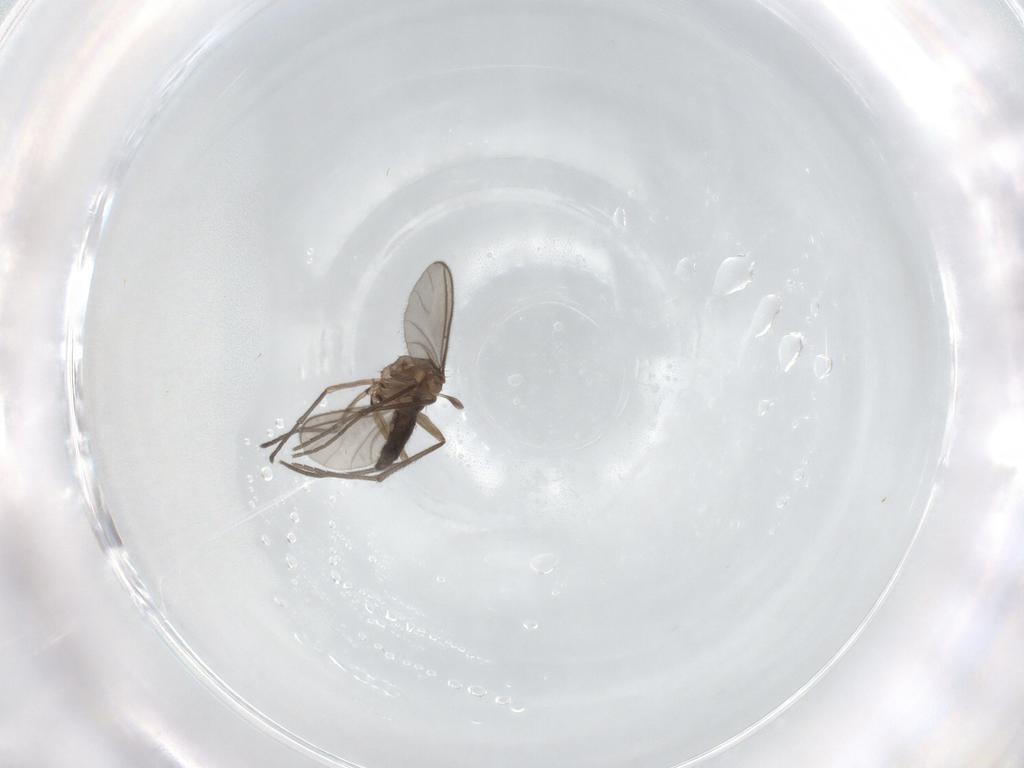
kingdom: Animalia
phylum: Arthropoda
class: Insecta
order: Diptera
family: Sciaridae
